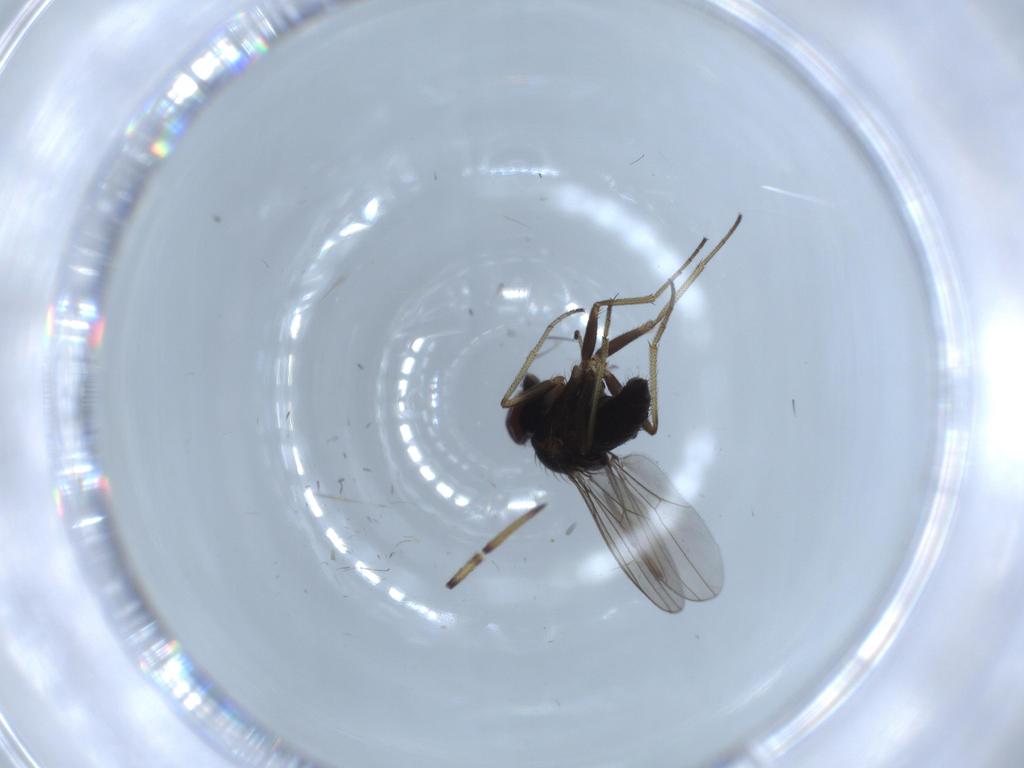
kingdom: Animalia
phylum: Arthropoda
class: Insecta
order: Diptera
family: Dolichopodidae
